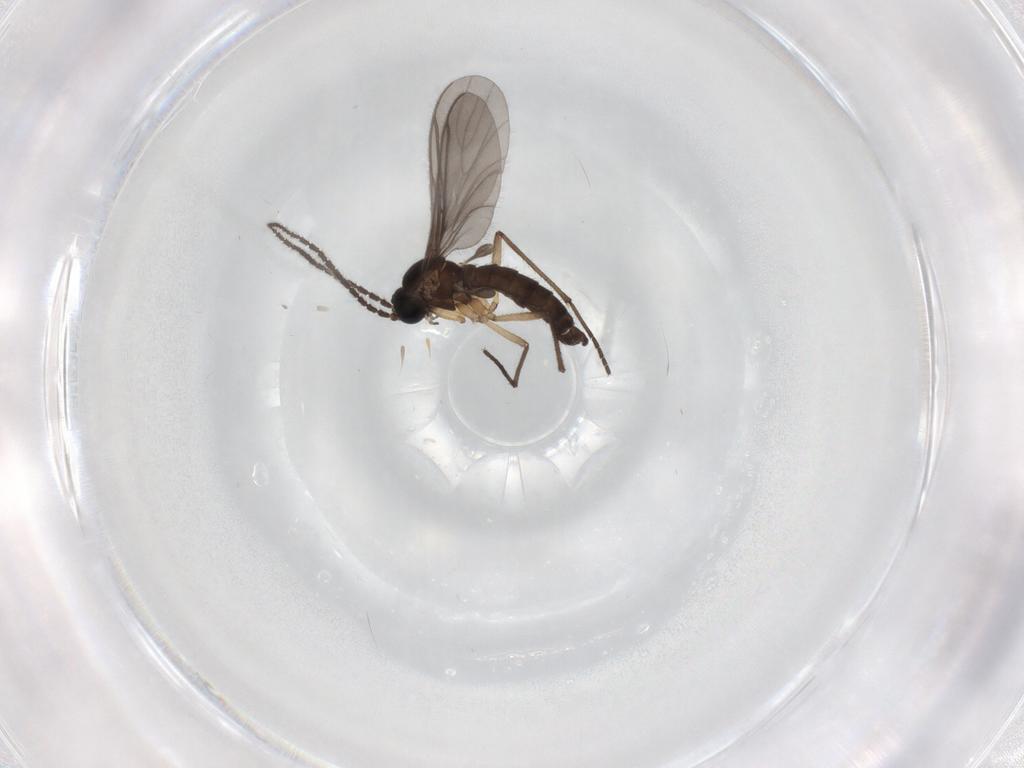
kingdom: Animalia
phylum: Arthropoda
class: Insecta
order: Diptera
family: Sciaridae
